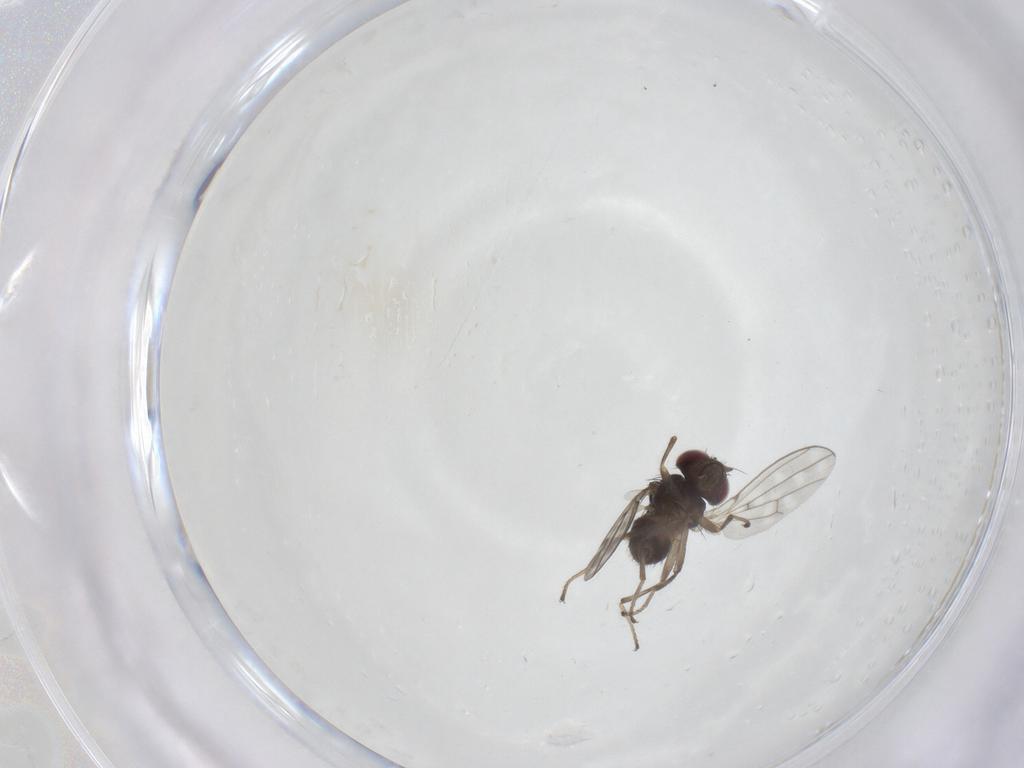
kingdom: Animalia
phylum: Arthropoda
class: Insecta
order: Diptera
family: Ephydridae
